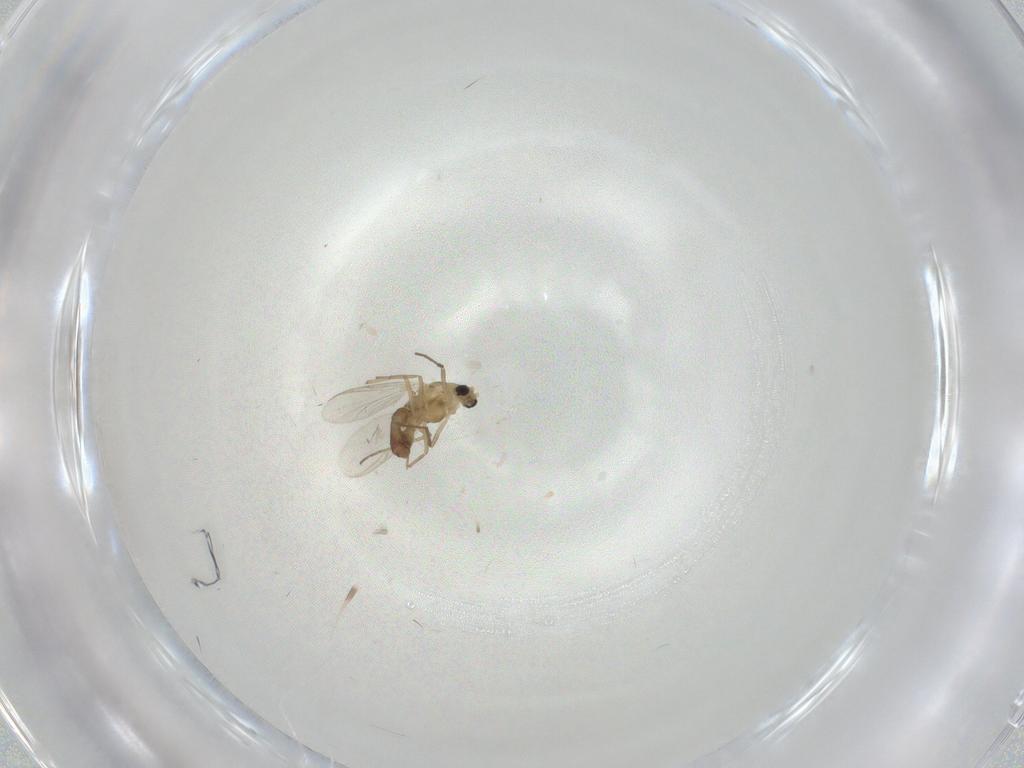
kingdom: Animalia
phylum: Arthropoda
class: Insecta
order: Diptera
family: Chironomidae
